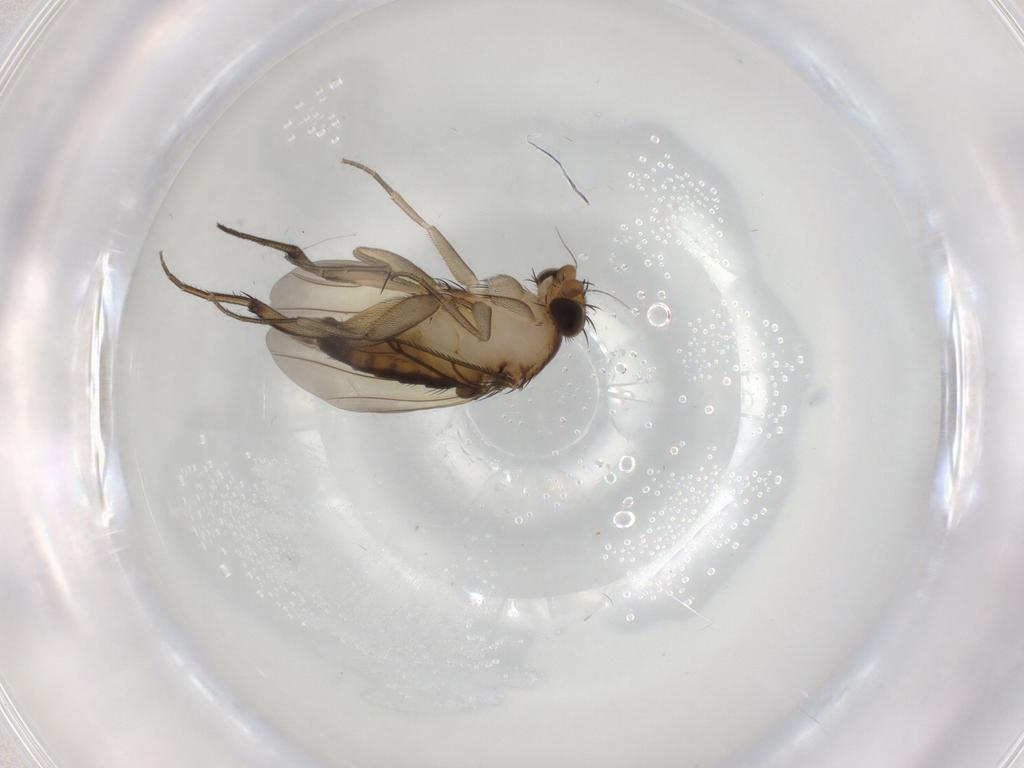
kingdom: Animalia
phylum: Arthropoda
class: Insecta
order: Diptera
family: Phoridae
